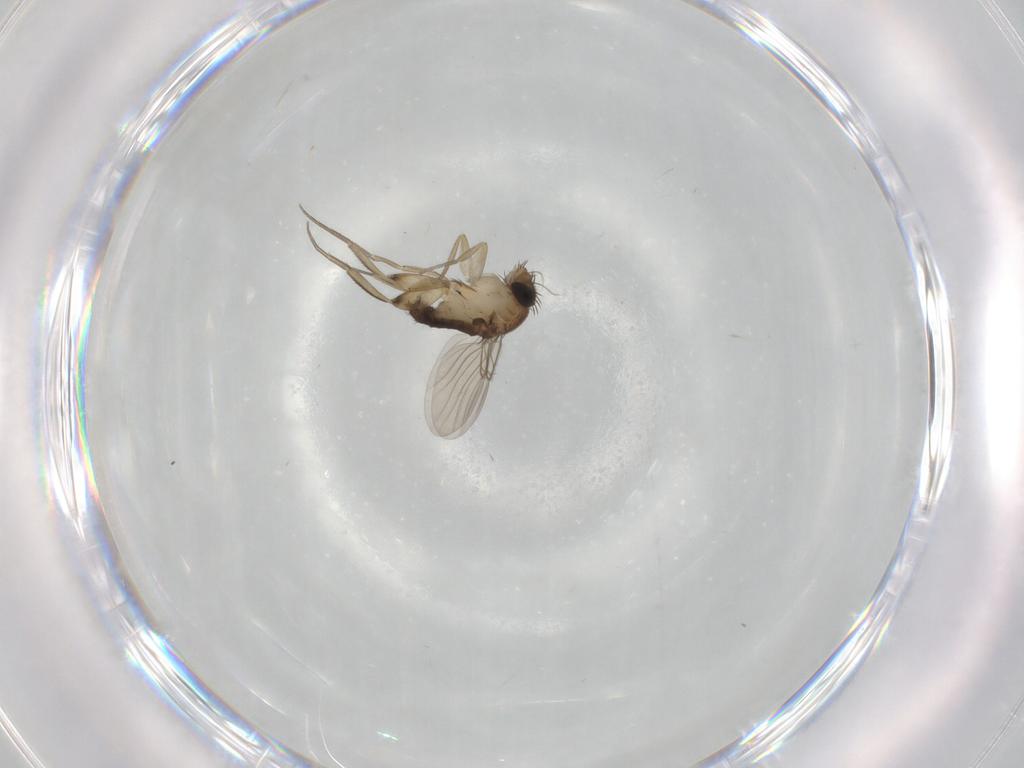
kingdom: Animalia
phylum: Arthropoda
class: Insecta
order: Diptera
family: Phoridae
